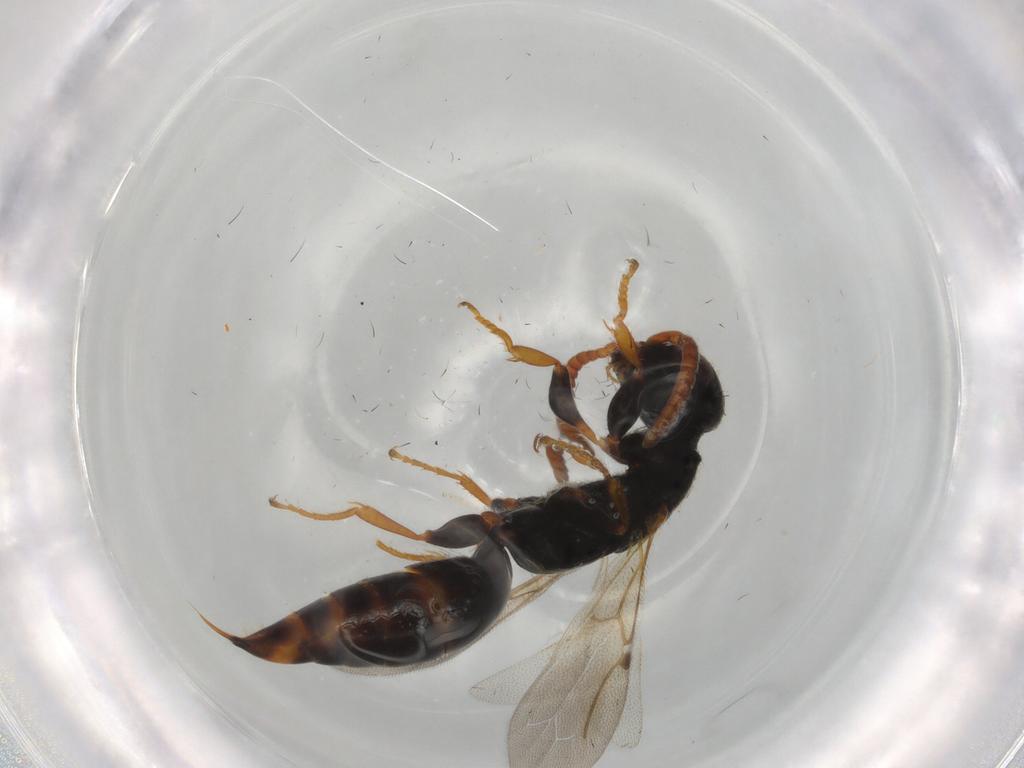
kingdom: Animalia
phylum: Arthropoda
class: Insecta
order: Hymenoptera
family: Bethylidae
